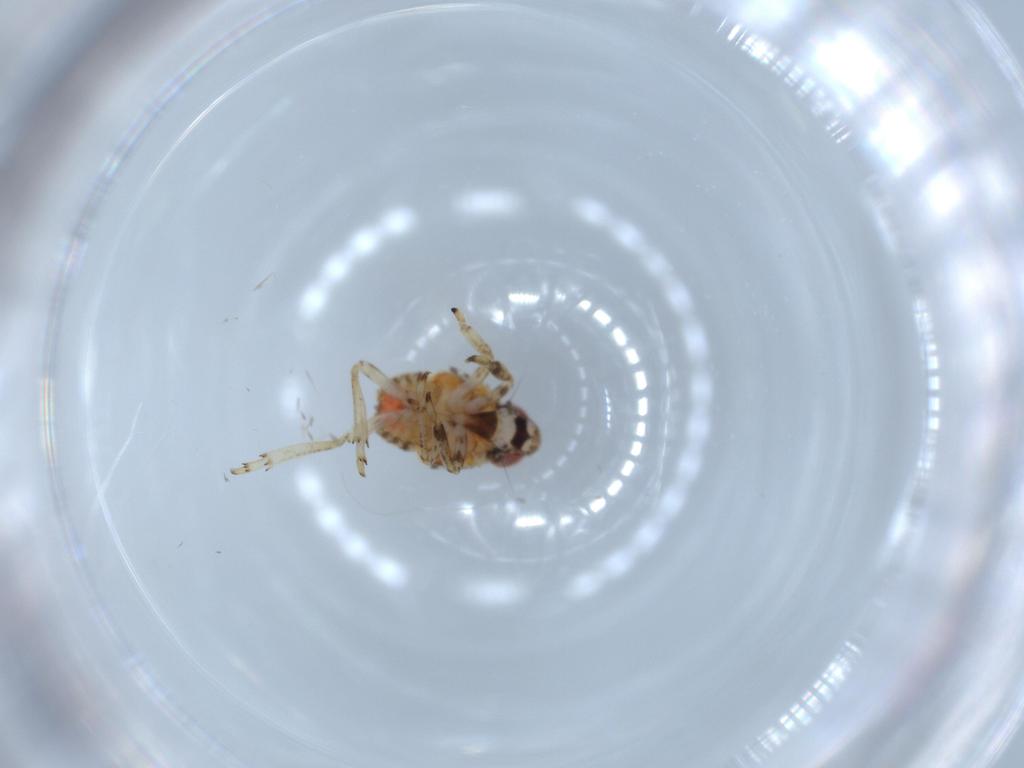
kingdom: Animalia
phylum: Arthropoda
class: Insecta
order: Hemiptera
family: Issidae
